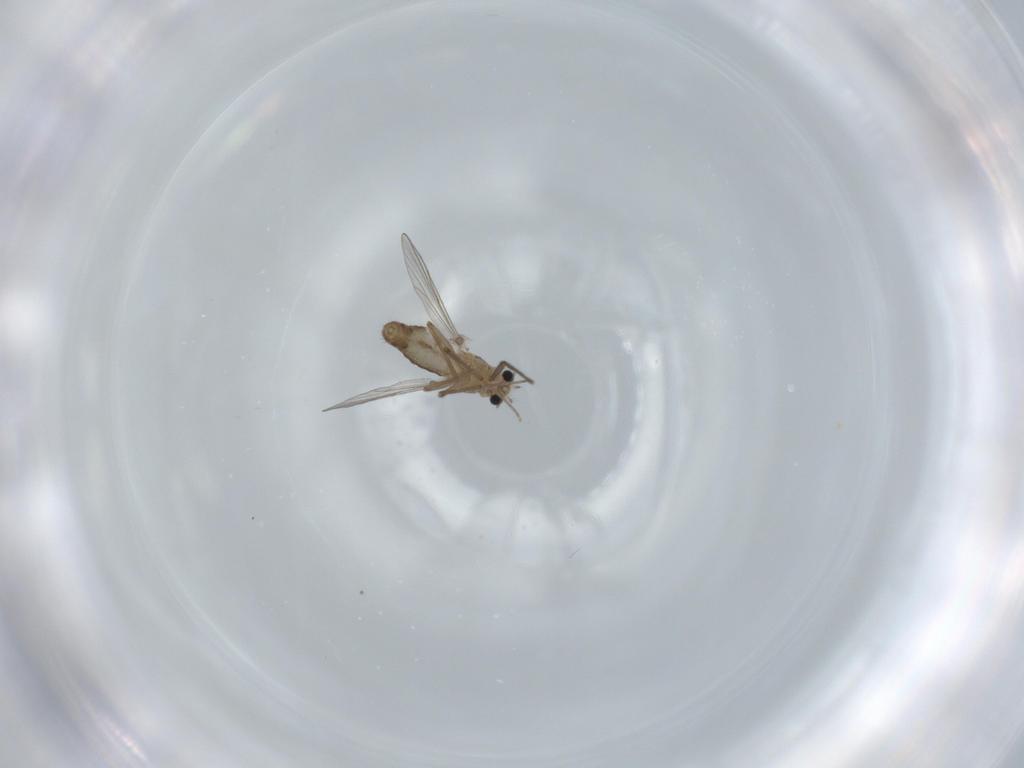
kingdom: Animalia
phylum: Arthropoda
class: Insecta
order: Diptera
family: Chironomidae
